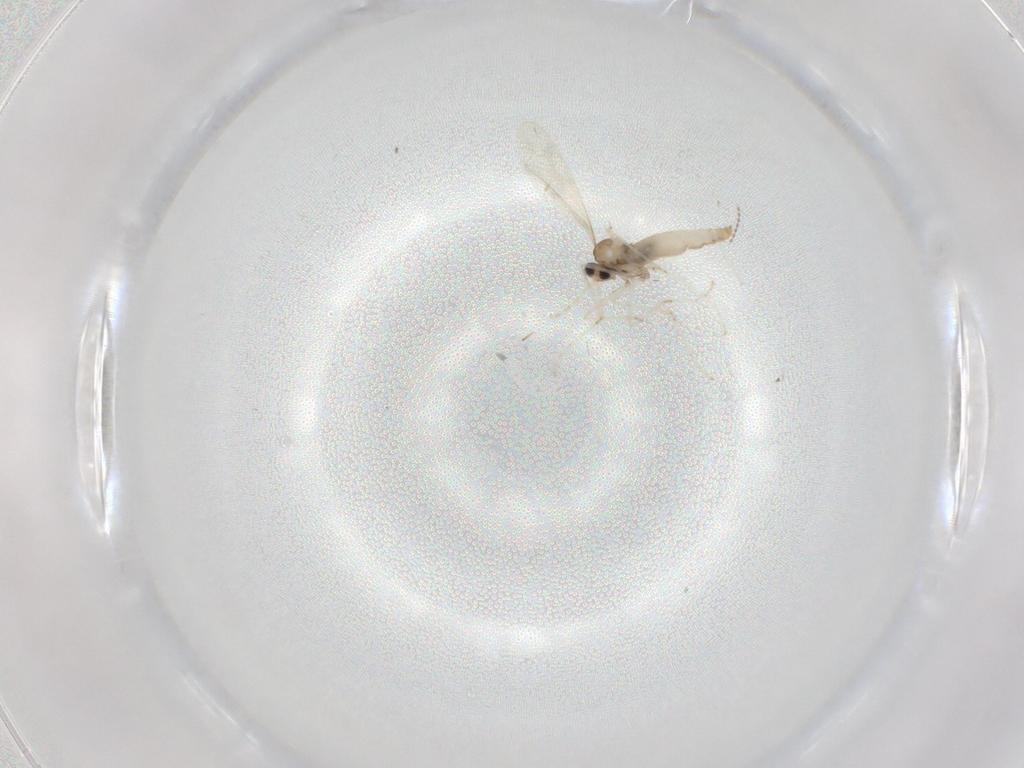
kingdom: Animalia
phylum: Arthropoda
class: Insecta
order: Diptera
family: Cecidomyiidae
